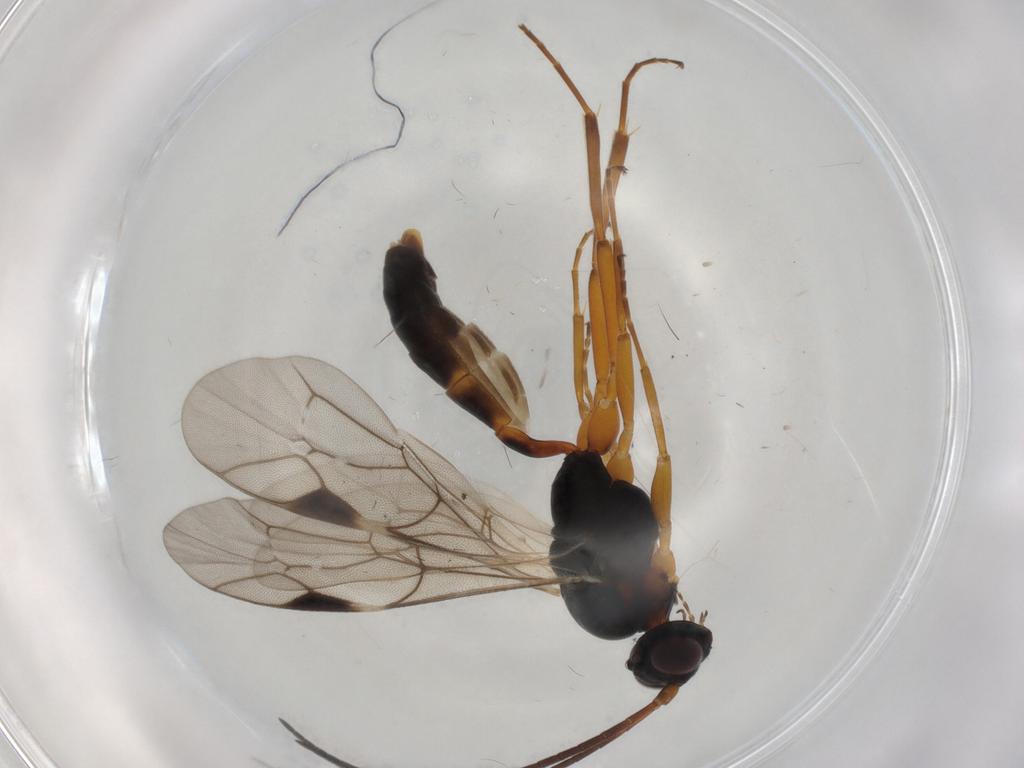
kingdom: Animalia
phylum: Arthropoda
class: Insecta
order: Hymenoptera
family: Ichneumonidae
